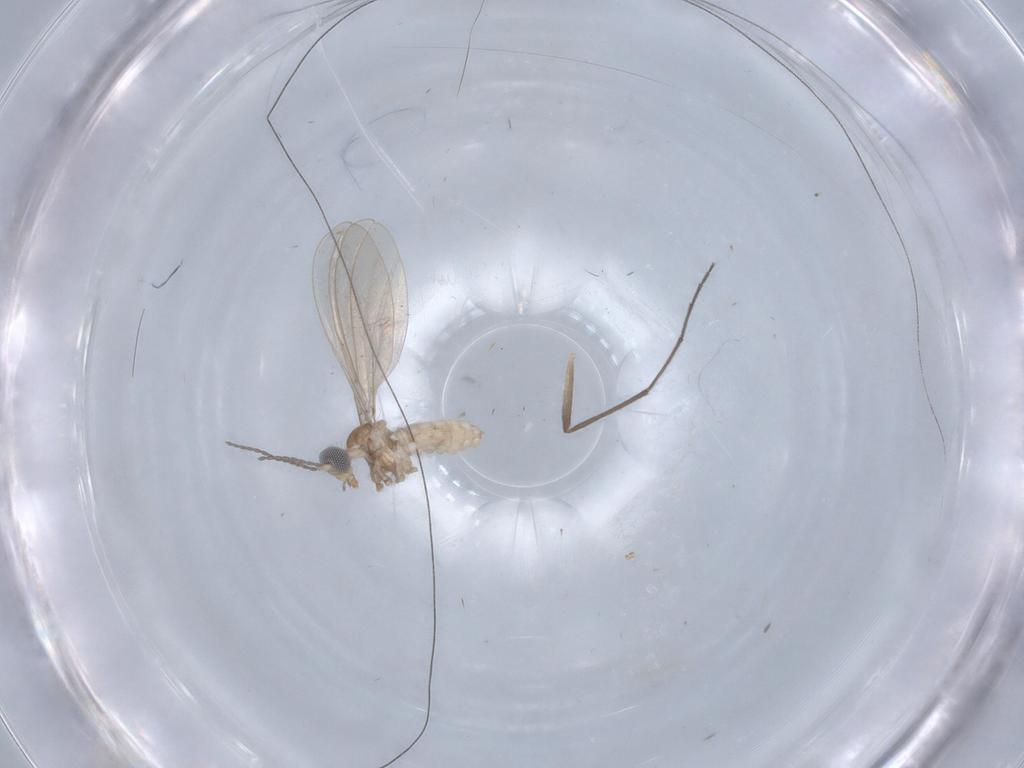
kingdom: Animalia
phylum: Arthropoda
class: Insecta
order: Diptera
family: Cecidomyiidae
